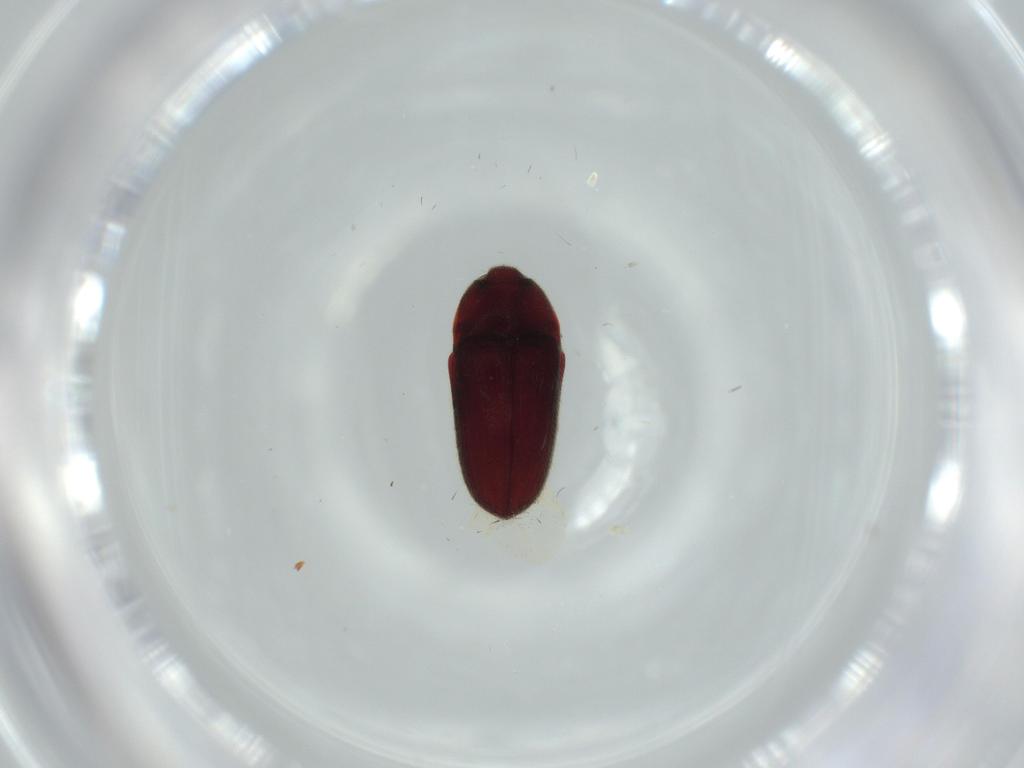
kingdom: Animalia
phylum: Arthropoda
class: Insecta
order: Coleoptera
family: Throscidae
